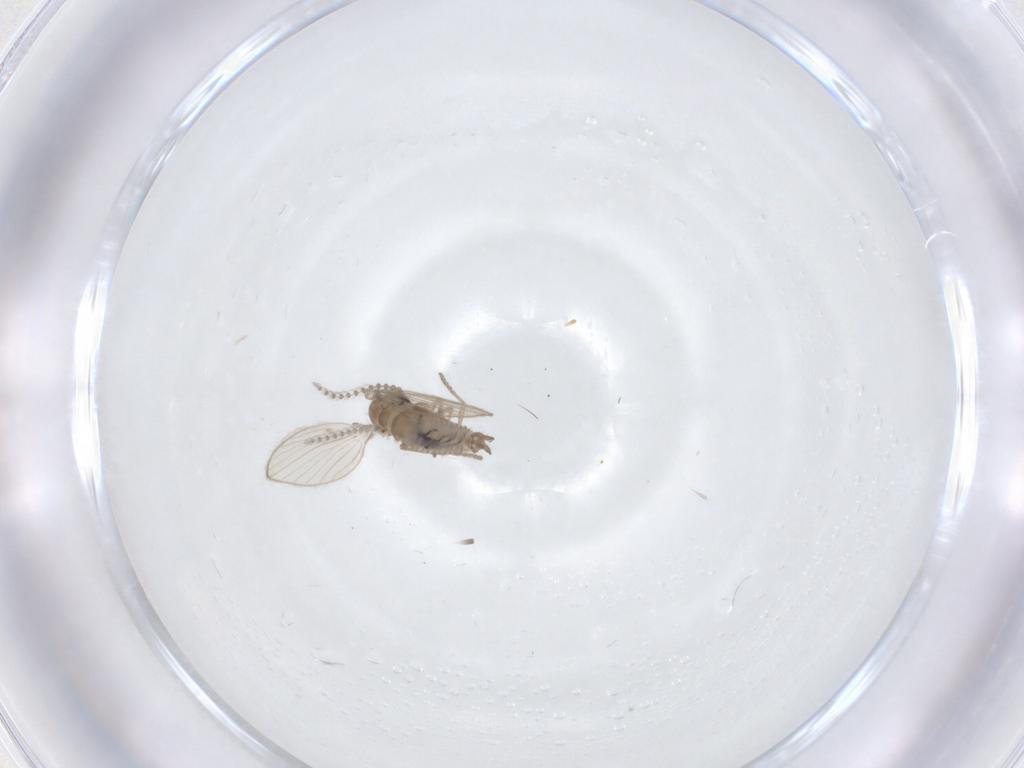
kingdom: Animalia
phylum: Arthropoda
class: Insecta
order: Diptera
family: Psychodidae
